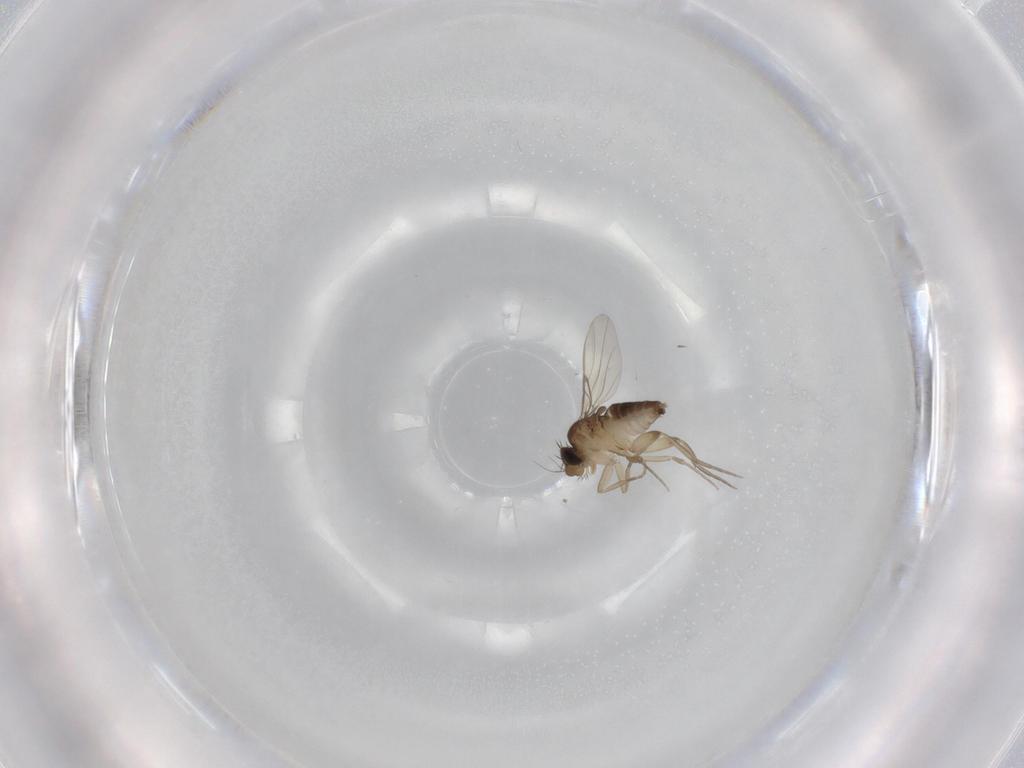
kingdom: Animalia
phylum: Arthropoda
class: Insecta
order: Diptera
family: Phoridae
